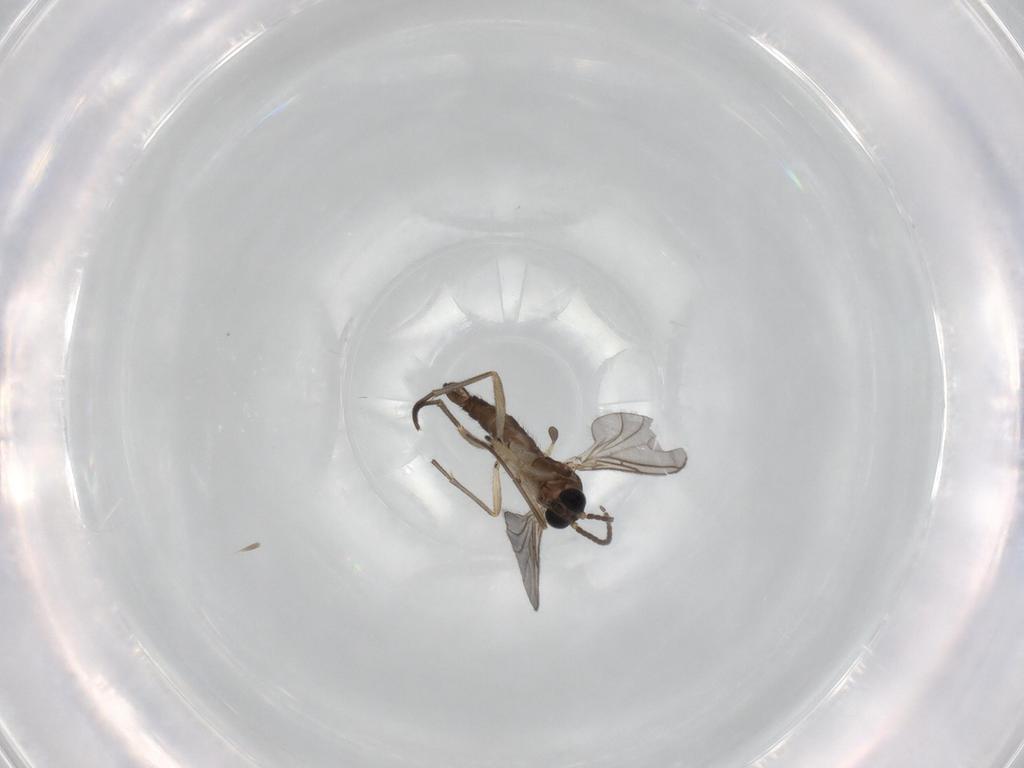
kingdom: Animalia
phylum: Arthropoda
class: Insecta
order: Diptera
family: Sciaridae
